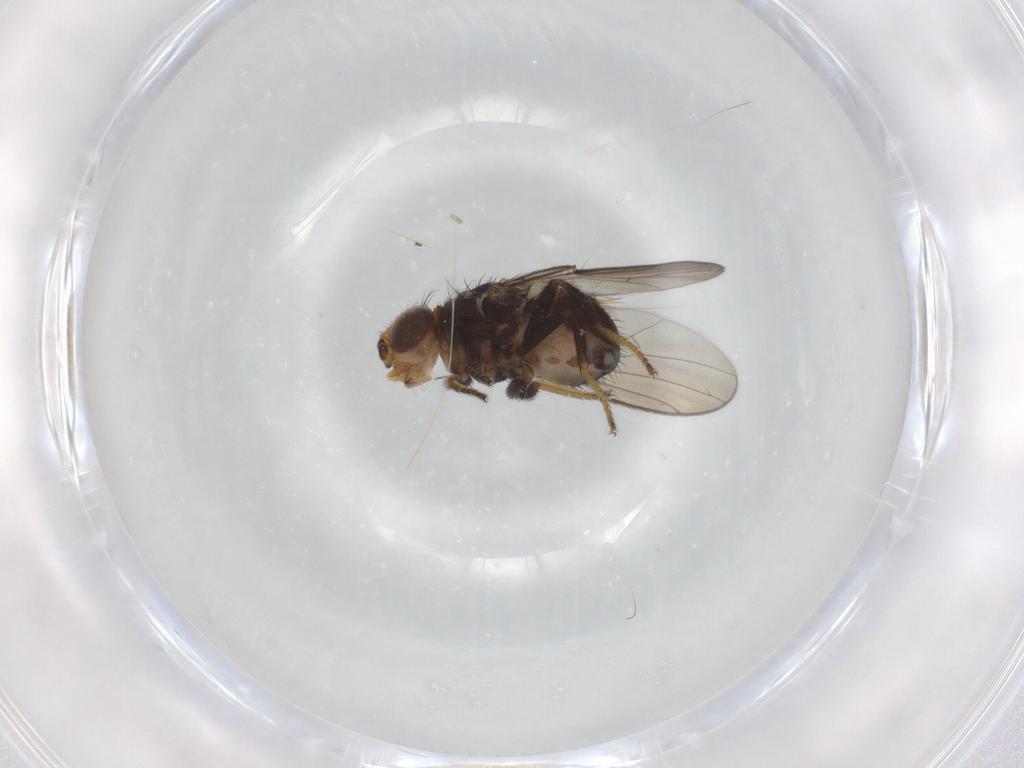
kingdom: Animalia
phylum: Arthropoda
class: Insecta
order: Diptera
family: Chloropidae
